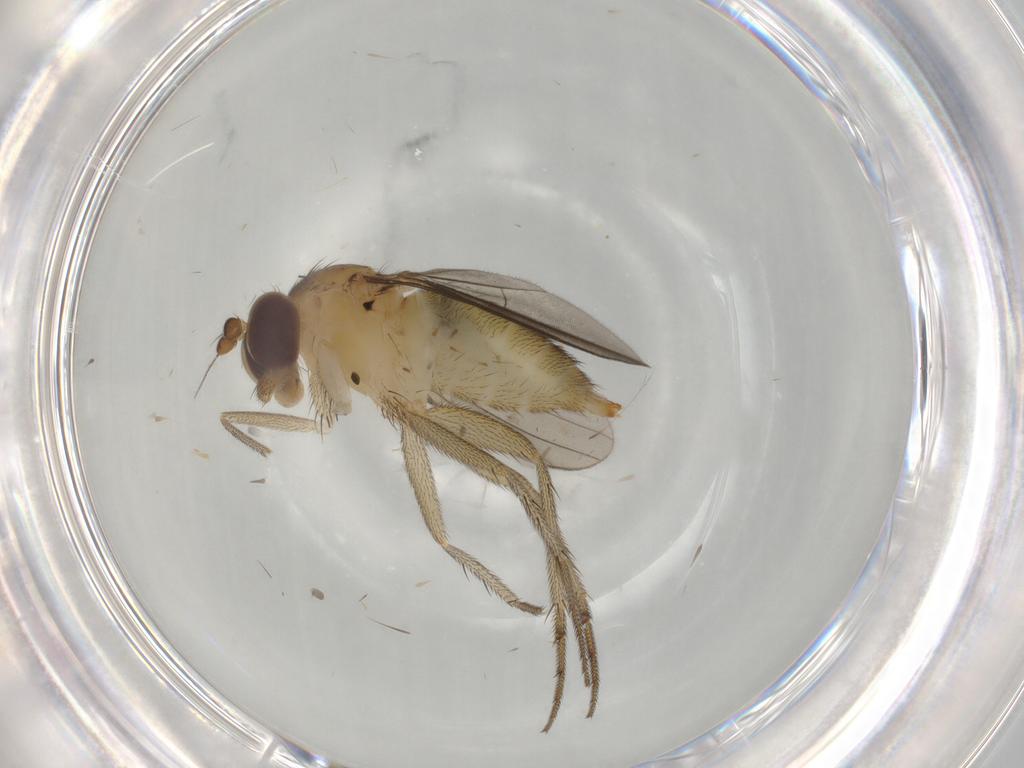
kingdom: Animalia
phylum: Arthropoda
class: Insecta
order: Diptera
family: Dolichopodidae
